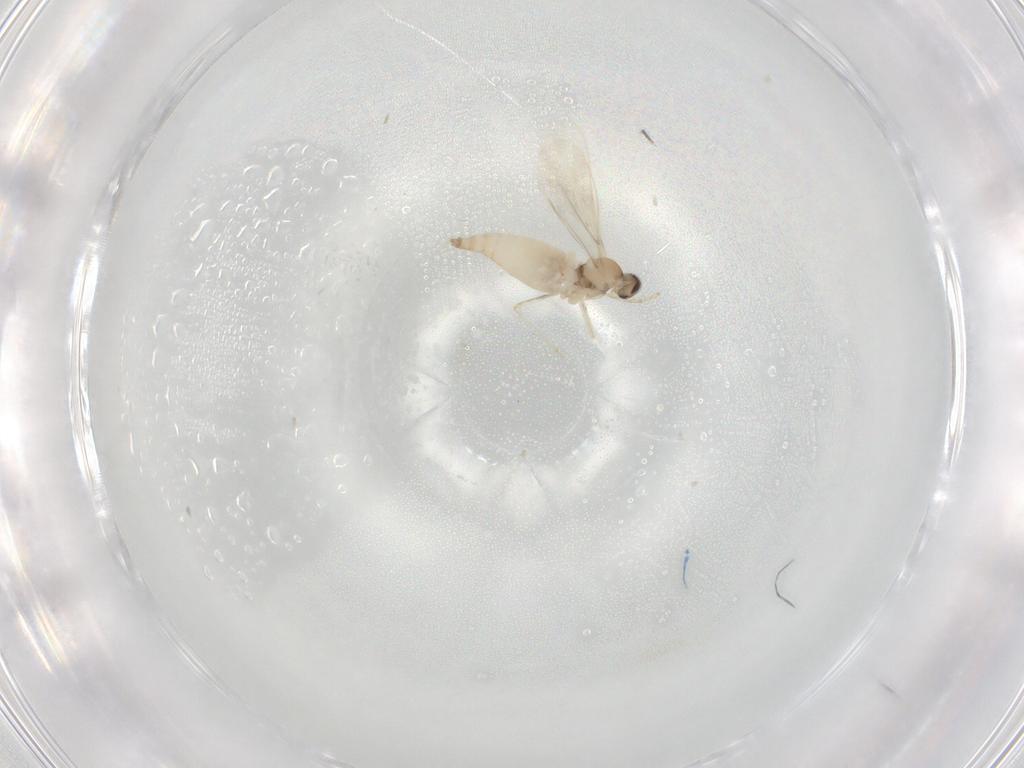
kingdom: Animalia
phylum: Arthropoda
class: Insecta
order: Diptera
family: Cecidomyiidae
